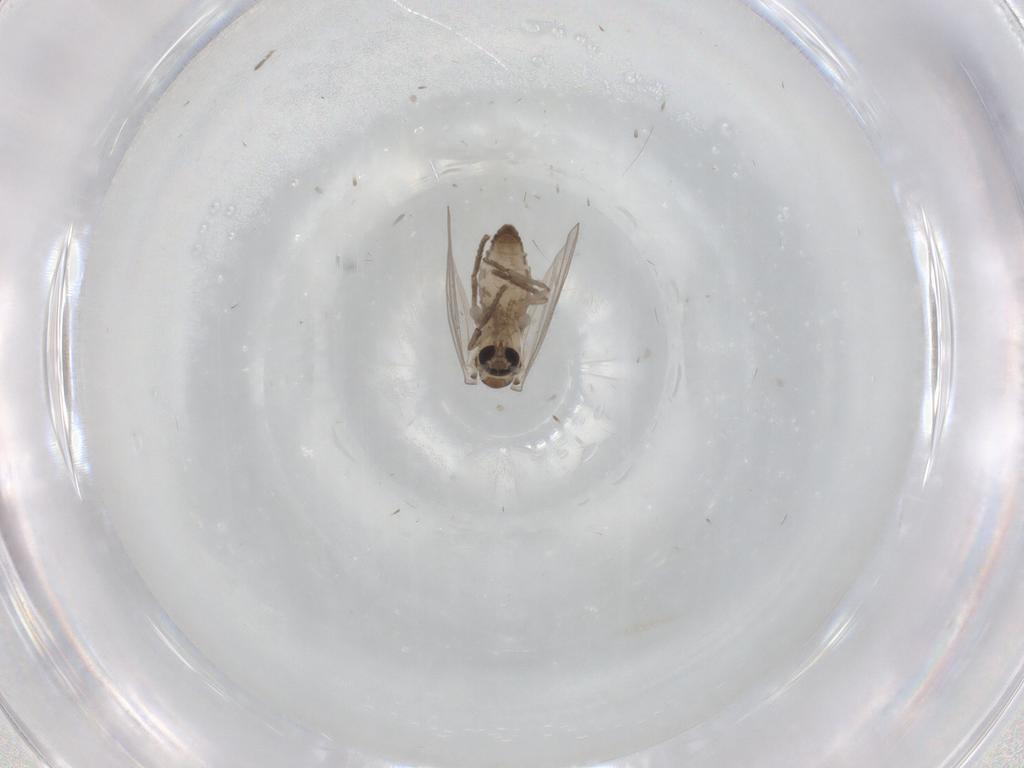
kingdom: Animalia
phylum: Arthropoda
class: Insecta
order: Diptera
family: Drosophilidae
